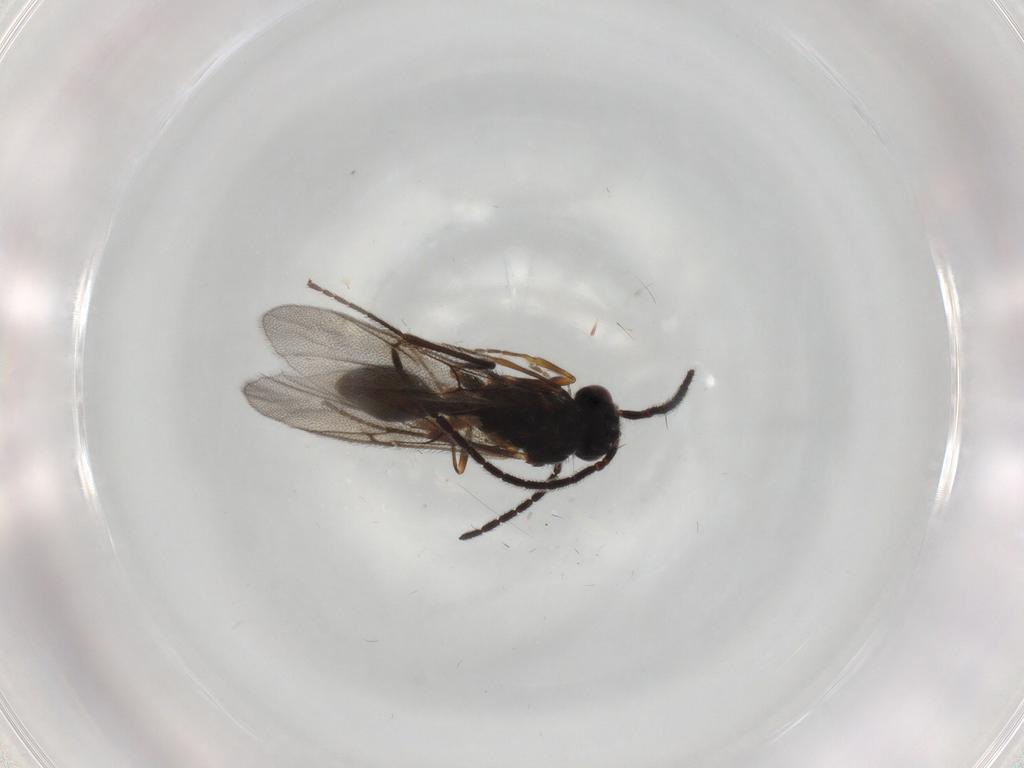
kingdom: Animalia
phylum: Arthropoda
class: Insecta
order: Hymenoptera
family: Diapriidae
